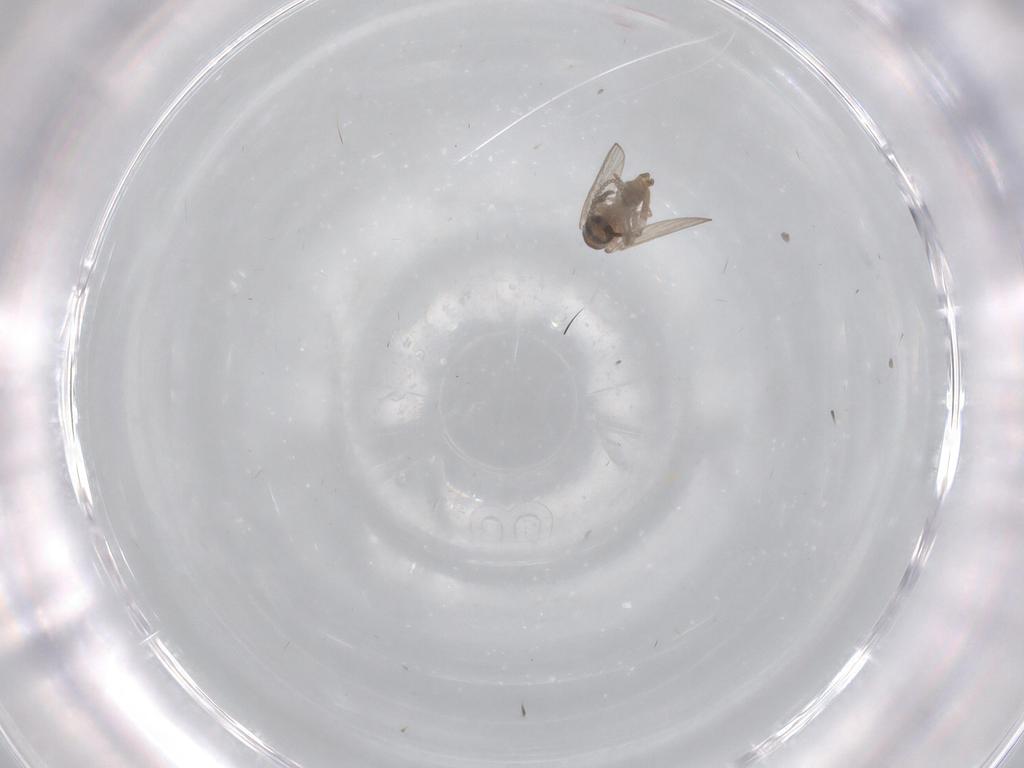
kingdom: Animalia
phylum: Arthropoda
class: Insecta
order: Diptera
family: Psychodidae
